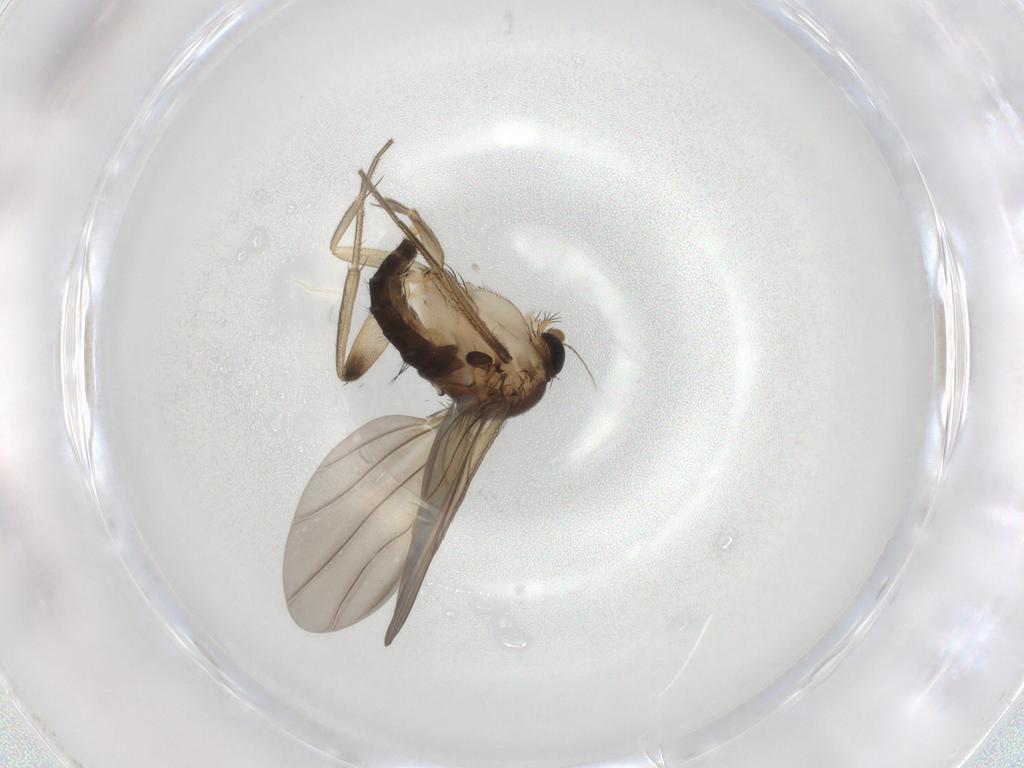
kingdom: Animalia
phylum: Arthropoda
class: Insecta
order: Diptera
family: Phoridae
